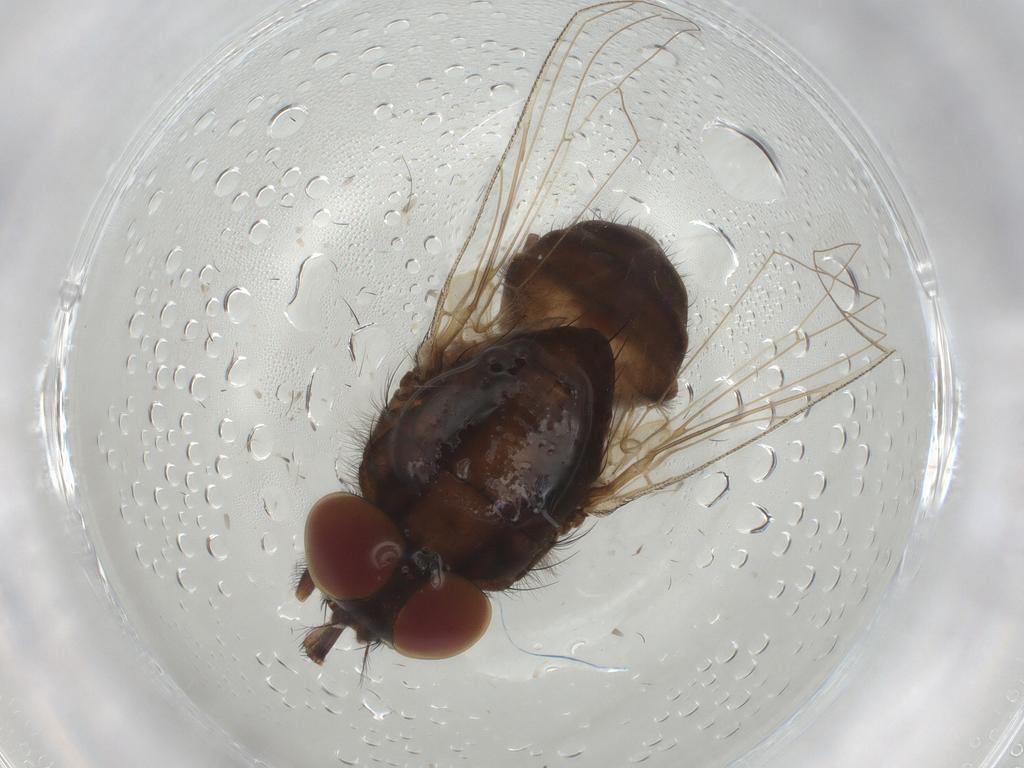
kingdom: Animalia
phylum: Arthropoda
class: Insecta
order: Diptera
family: Muscidae
